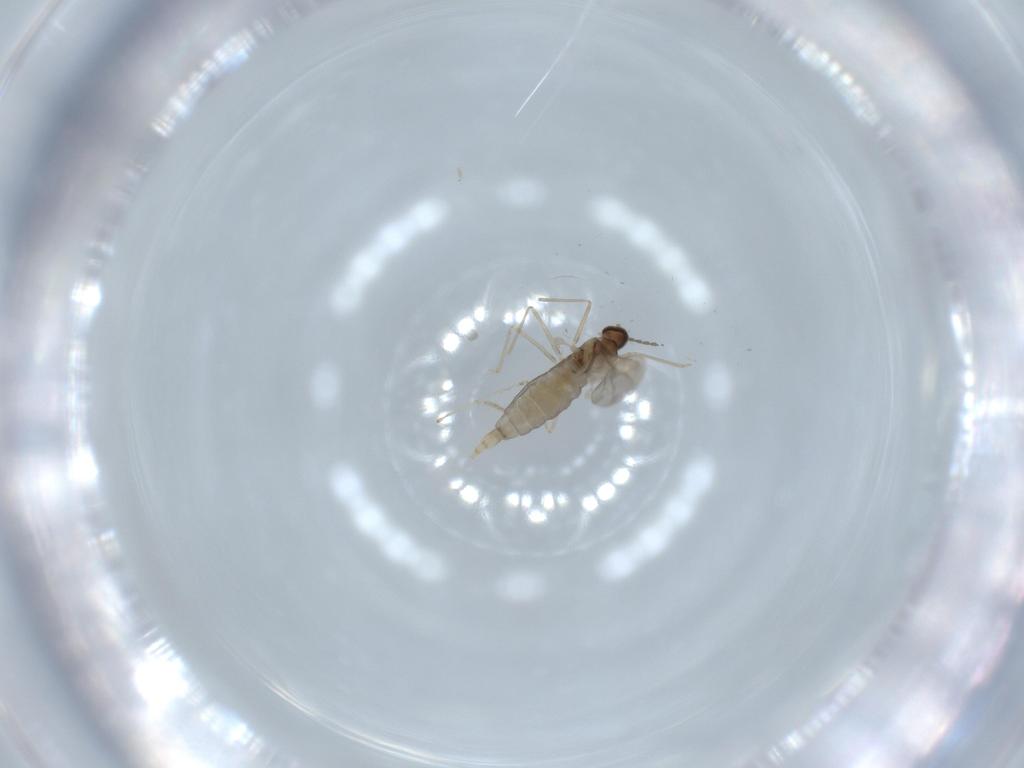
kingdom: Animalia
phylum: Arthropoda
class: Insecta
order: Diptera
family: Cecidomyiidae
